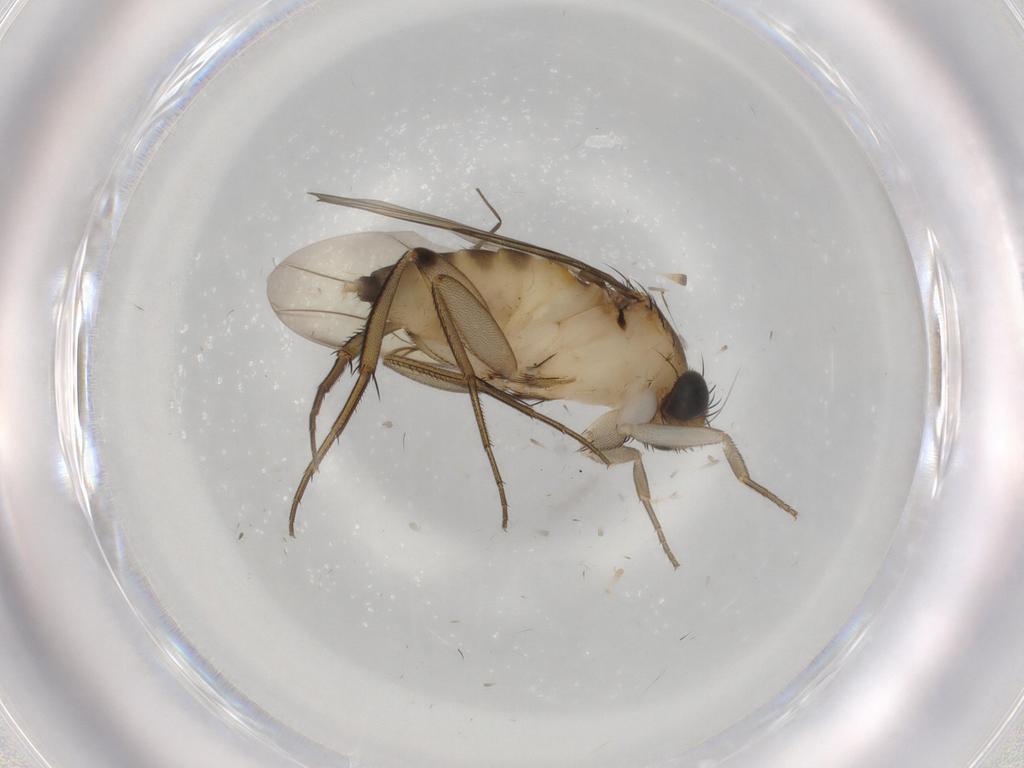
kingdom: Animalia
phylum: Arthropoda
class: Insecta
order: Diptera
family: Phoridae
